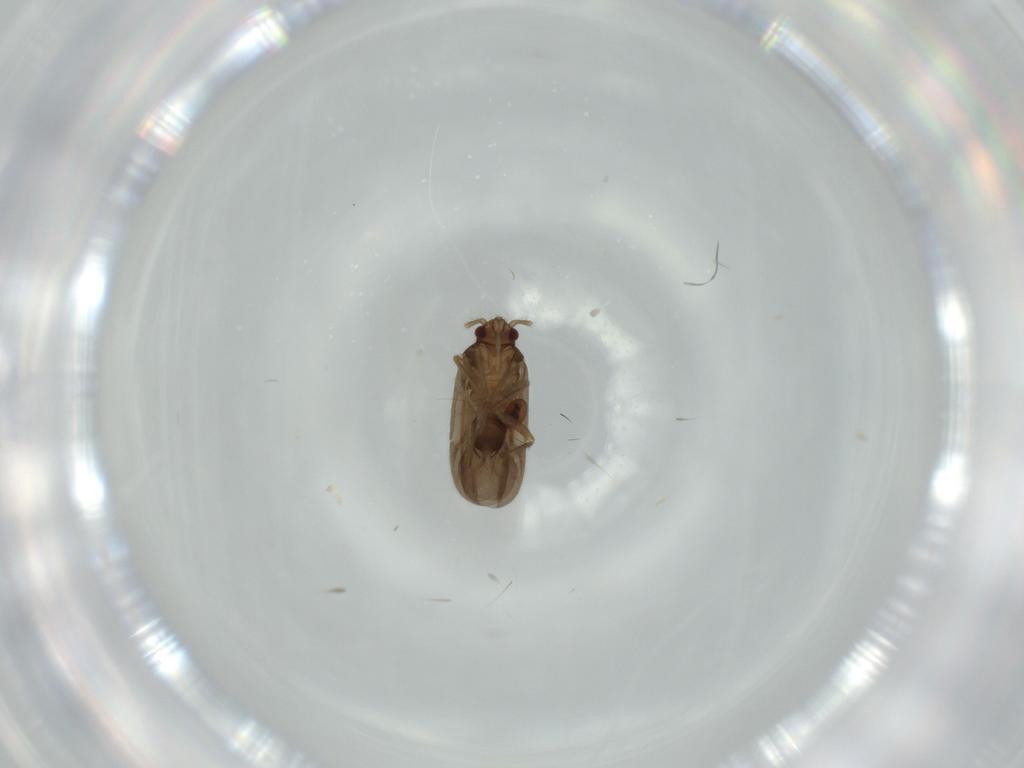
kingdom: Animalia
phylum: Arthropoda
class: Insecta
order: Hemiptera
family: Ceratocombidae
